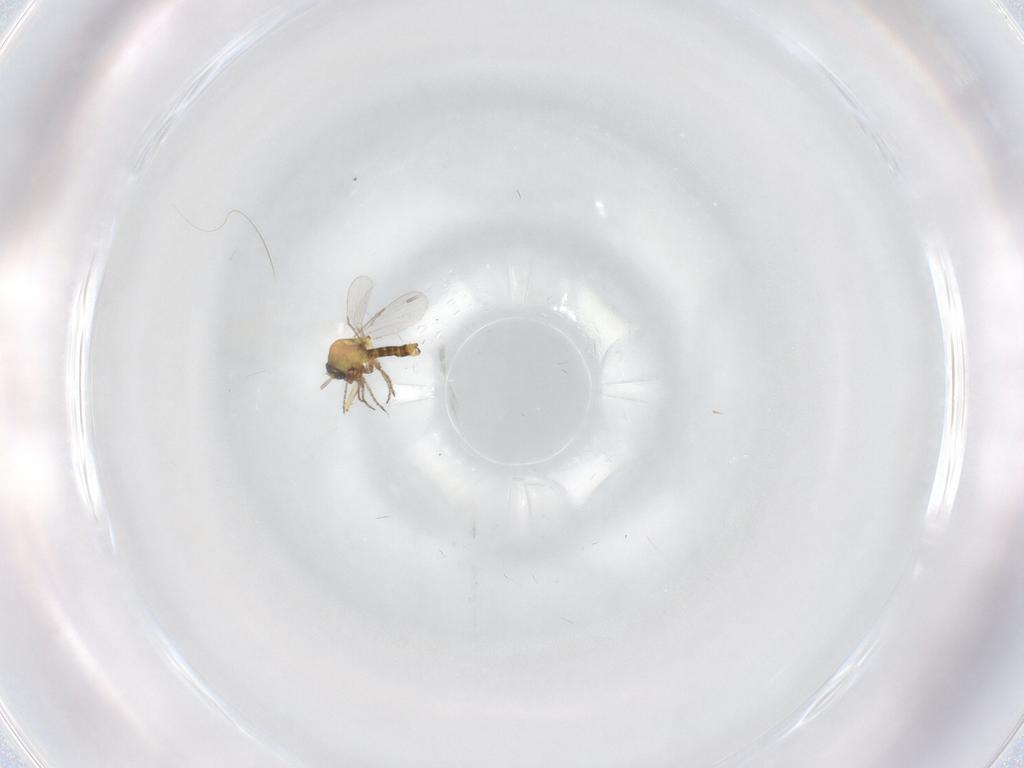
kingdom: Animalia
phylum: Arthropoda
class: Insecta
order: Diptera
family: Ceratopogonidae
